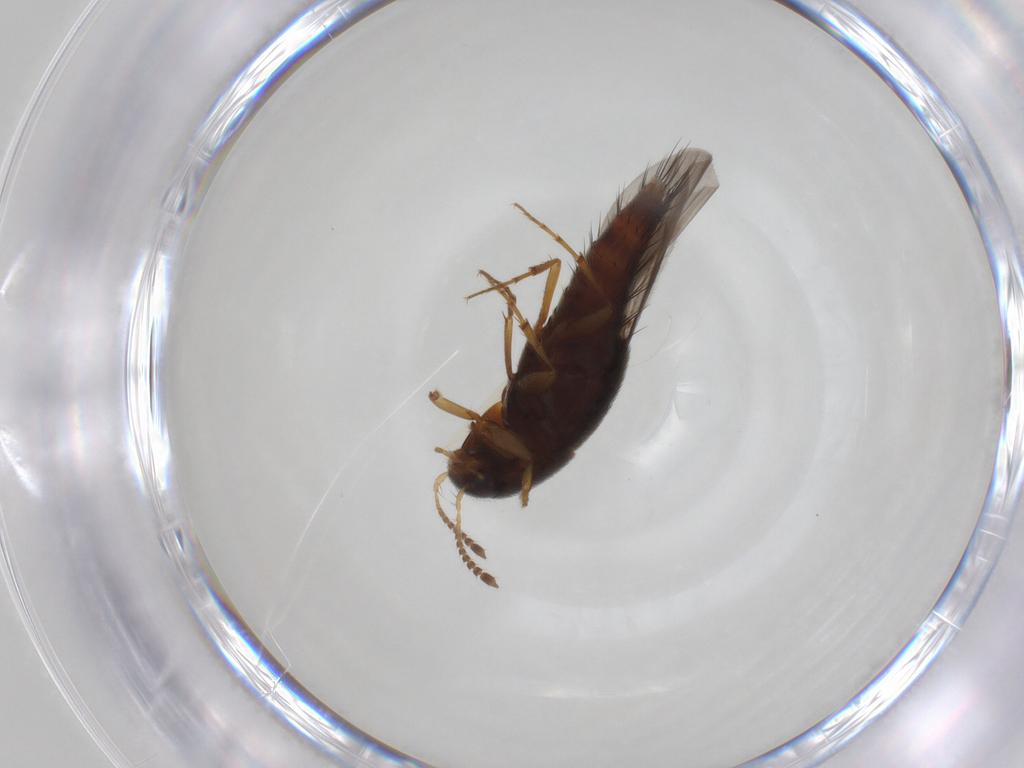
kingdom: Animalia
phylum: Arthropoda
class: Insecta
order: Coleoptera
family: Staphylinidae
